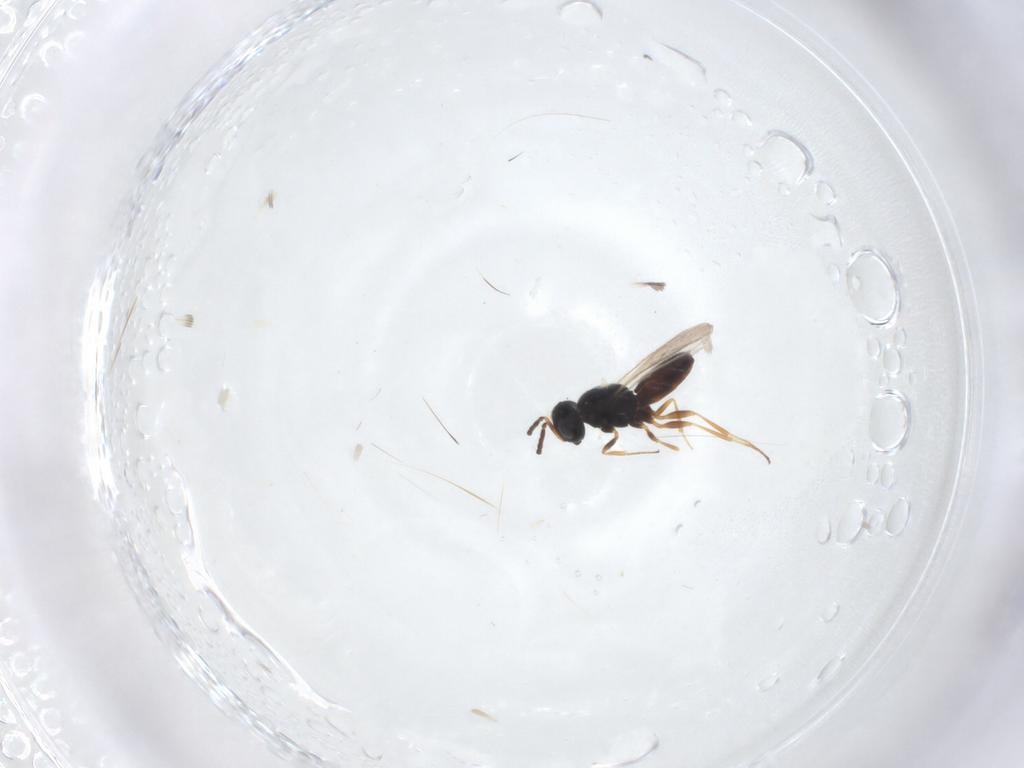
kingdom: Animalia
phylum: Arthropoda
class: Insecta
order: Hymenoptera
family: Scelionidae
